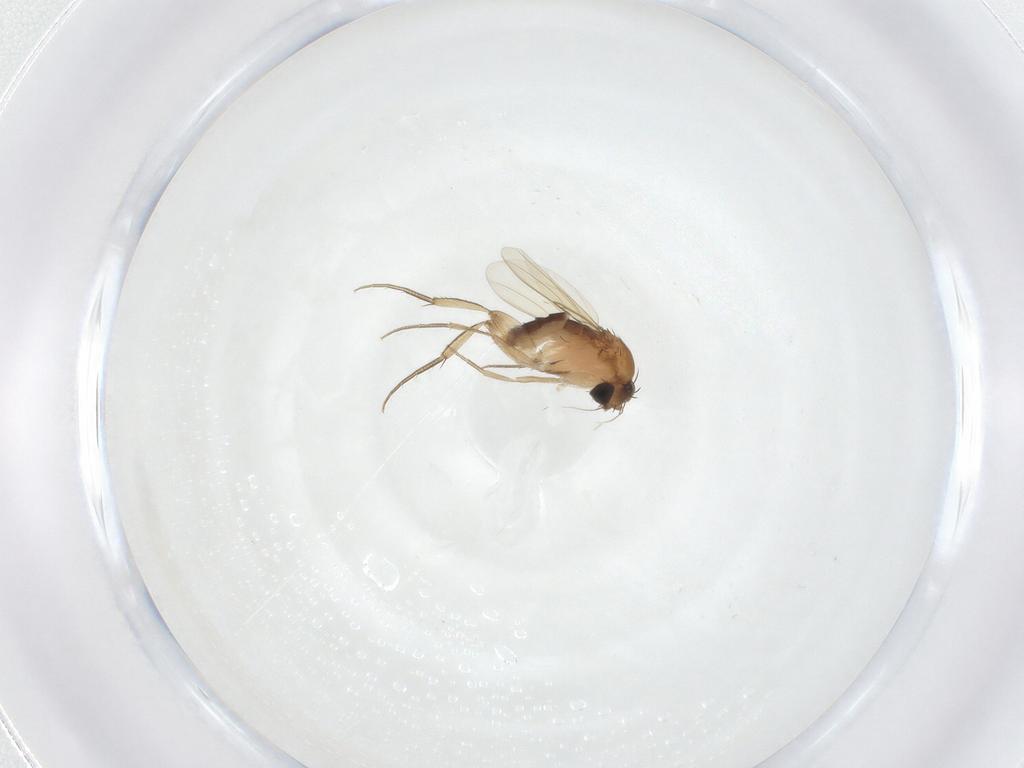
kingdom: Animalia
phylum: Arthropoda
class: Insecta
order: Diptera
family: Phoridae
